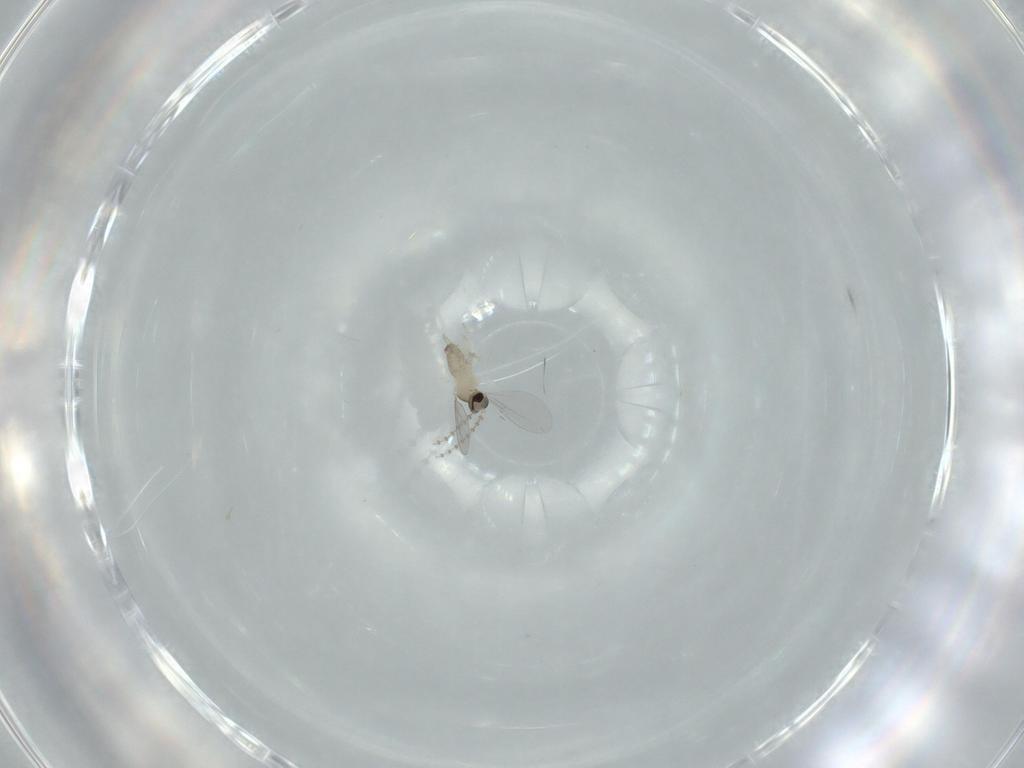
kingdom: Animalia
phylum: Arthropoda
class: Insecta
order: Diptera
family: Cecidomyiidae
